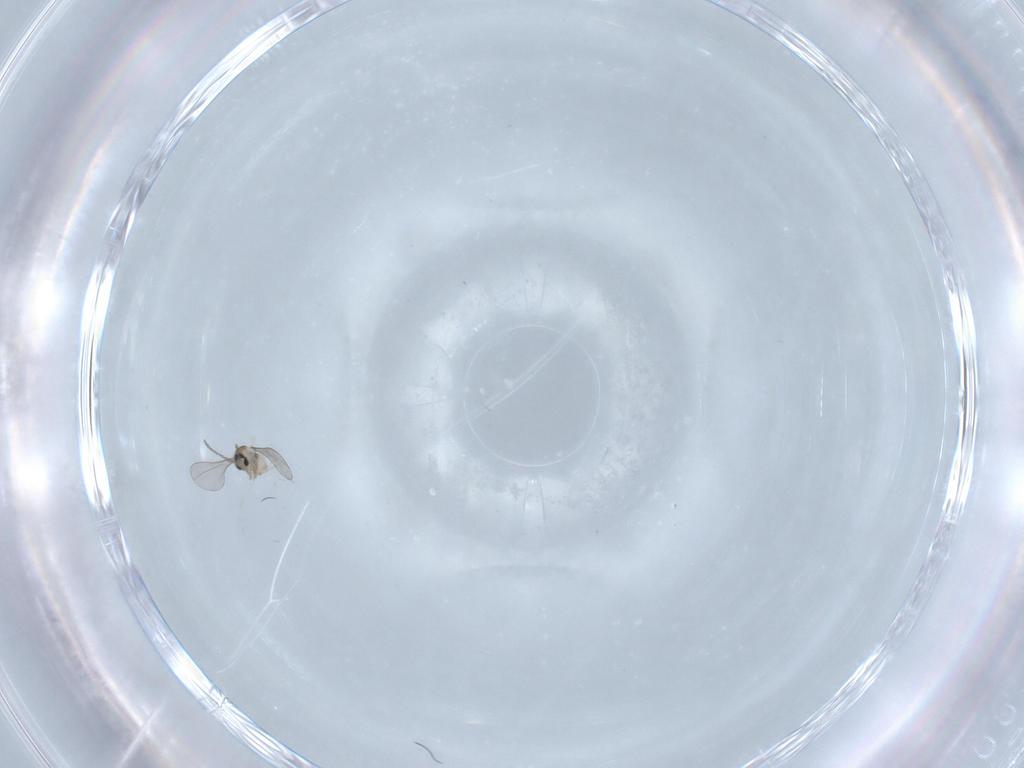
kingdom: Animalia
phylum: Arthropoda
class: Insecta
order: Diptera
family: Cecidomyiidae
